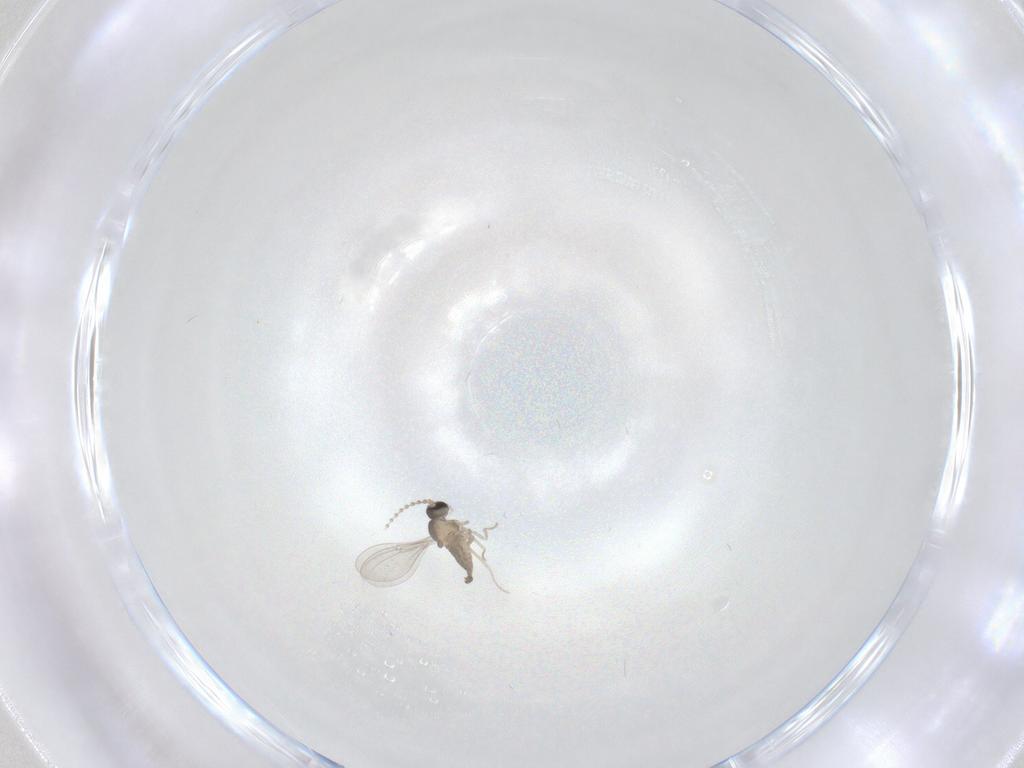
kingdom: Animalia
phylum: Arthropoda
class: Insecta
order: Diptera
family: Cecidomyiidae
